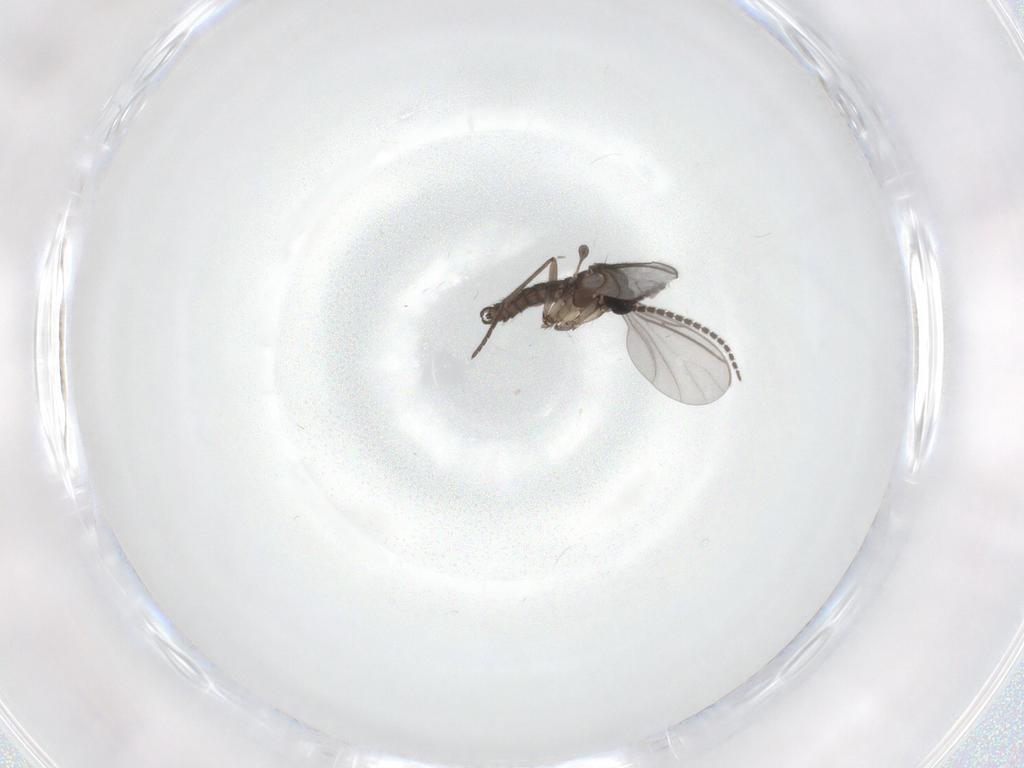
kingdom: Animalia
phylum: Arthropoda
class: Insecta
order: Diptera
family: Chironomidae
